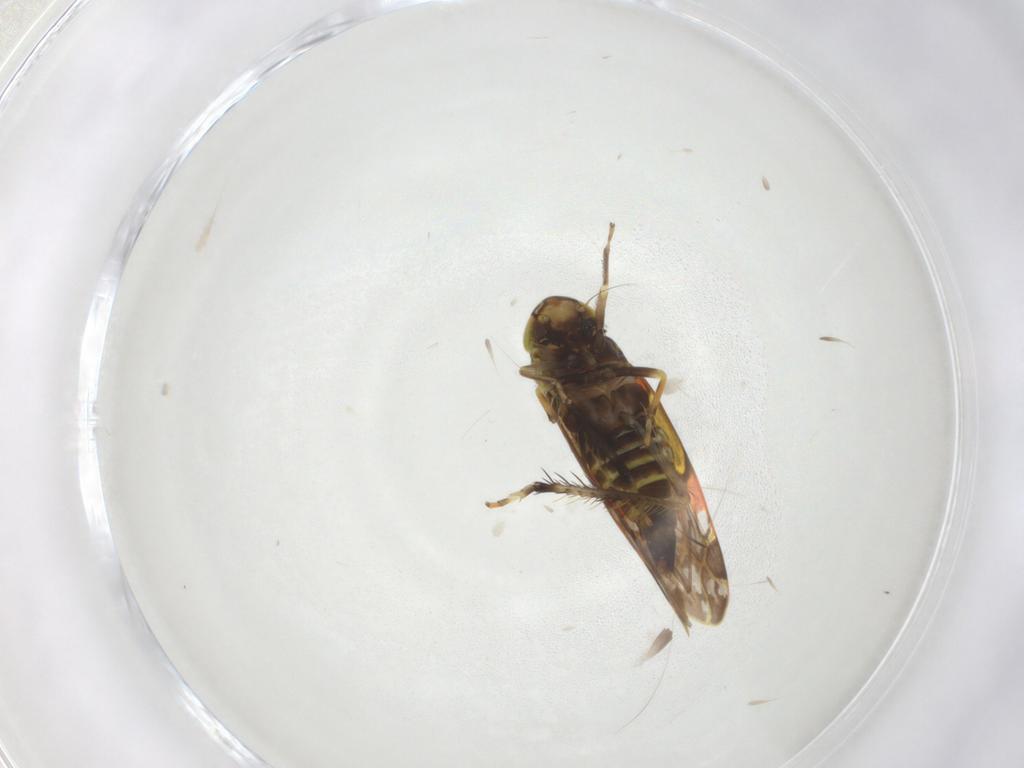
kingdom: Animalia
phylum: Arthropoda
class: Insecta
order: Hemiptera
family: Cicadellidae
